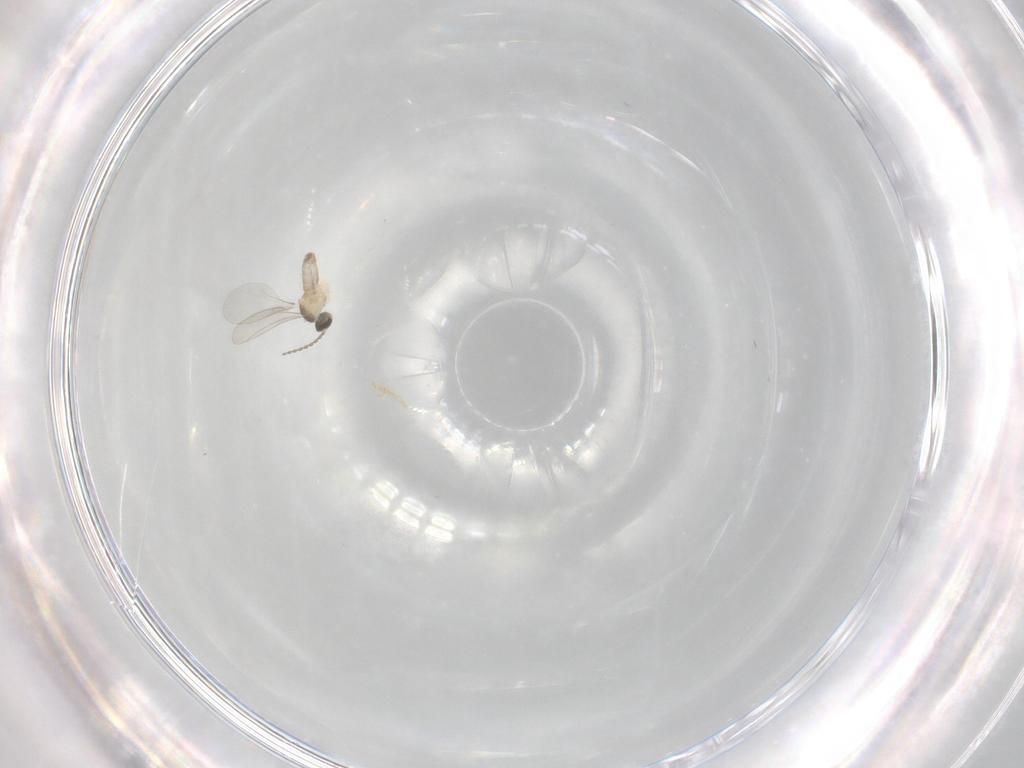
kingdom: Animalia
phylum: Arthropoda
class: Insecta
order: Diptera
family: Cecidomyiidae
